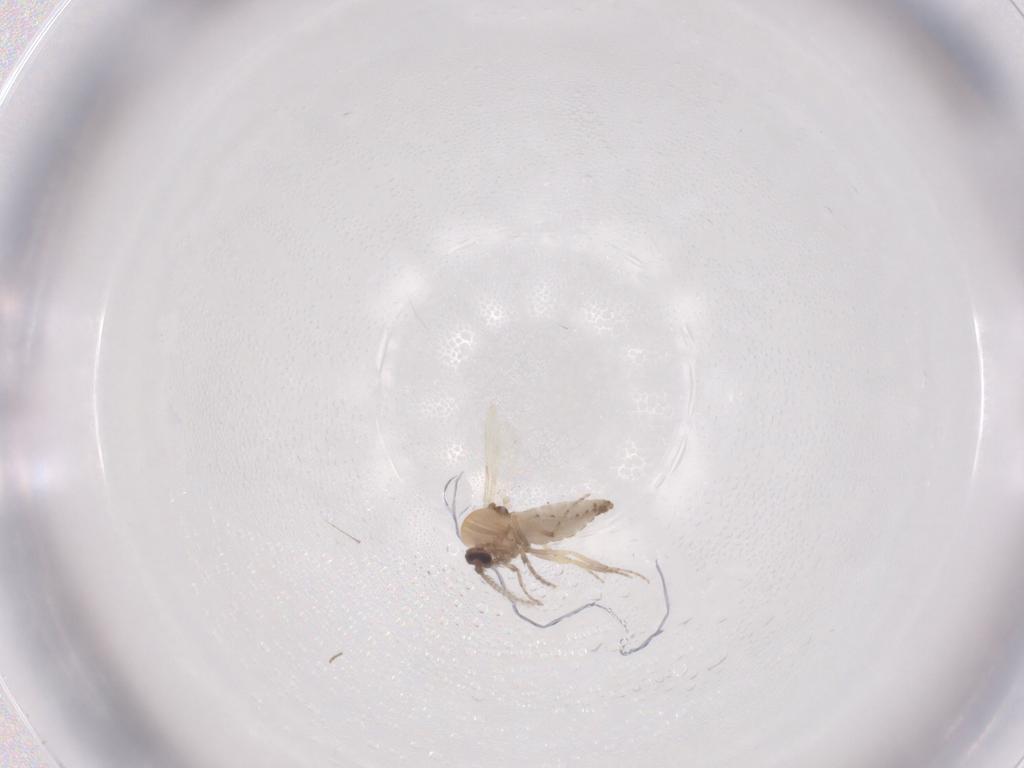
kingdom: Animalia
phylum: Arthropoda
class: Insecta
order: Diptera
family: Ceratopogonidae
